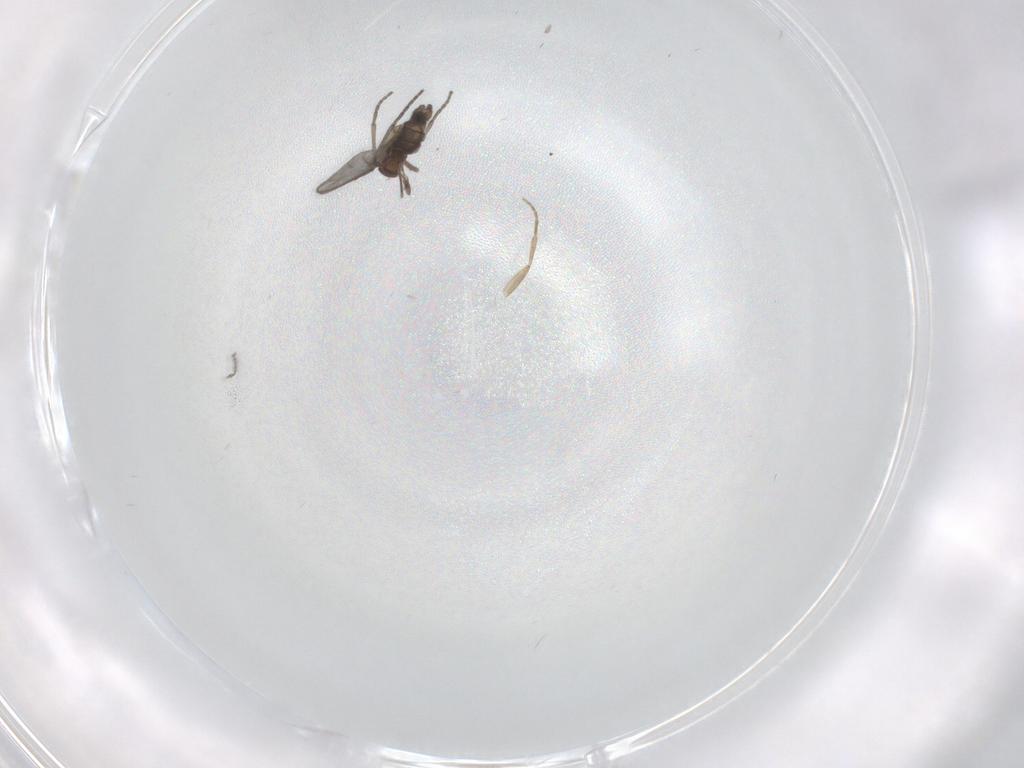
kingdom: Animalia
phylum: Arthropoda
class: Insecta
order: Diptera
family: Sciaridae
